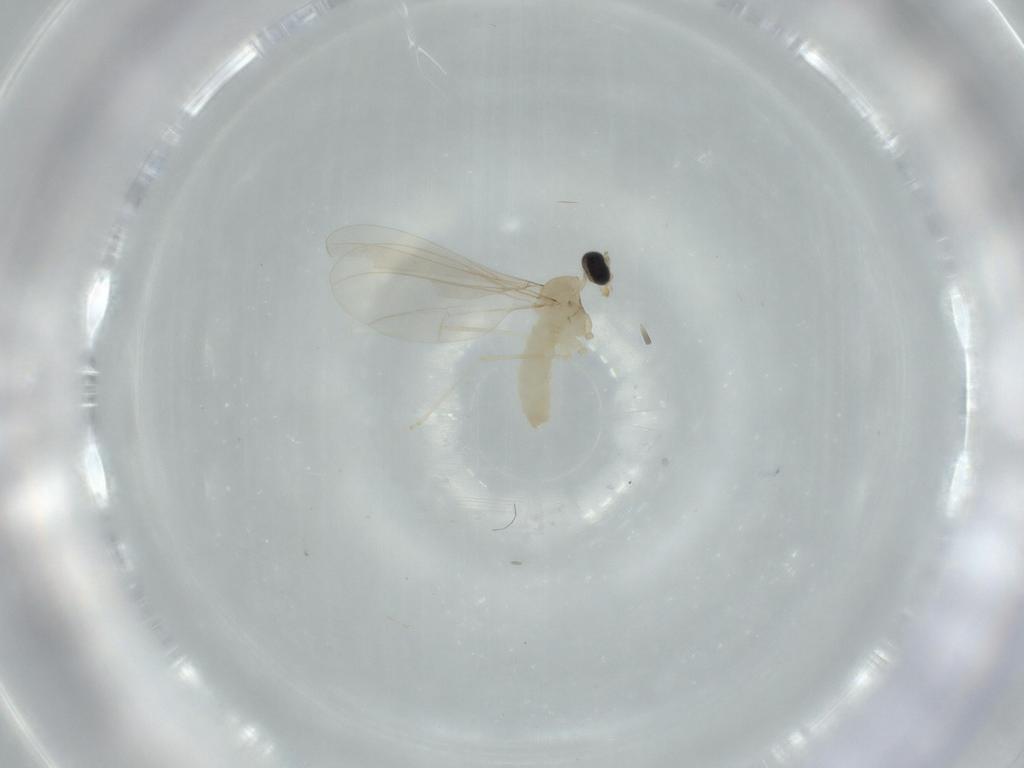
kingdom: Animalia
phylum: Arthropoda
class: Insecta
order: Diptera
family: Cecidomyiidae
